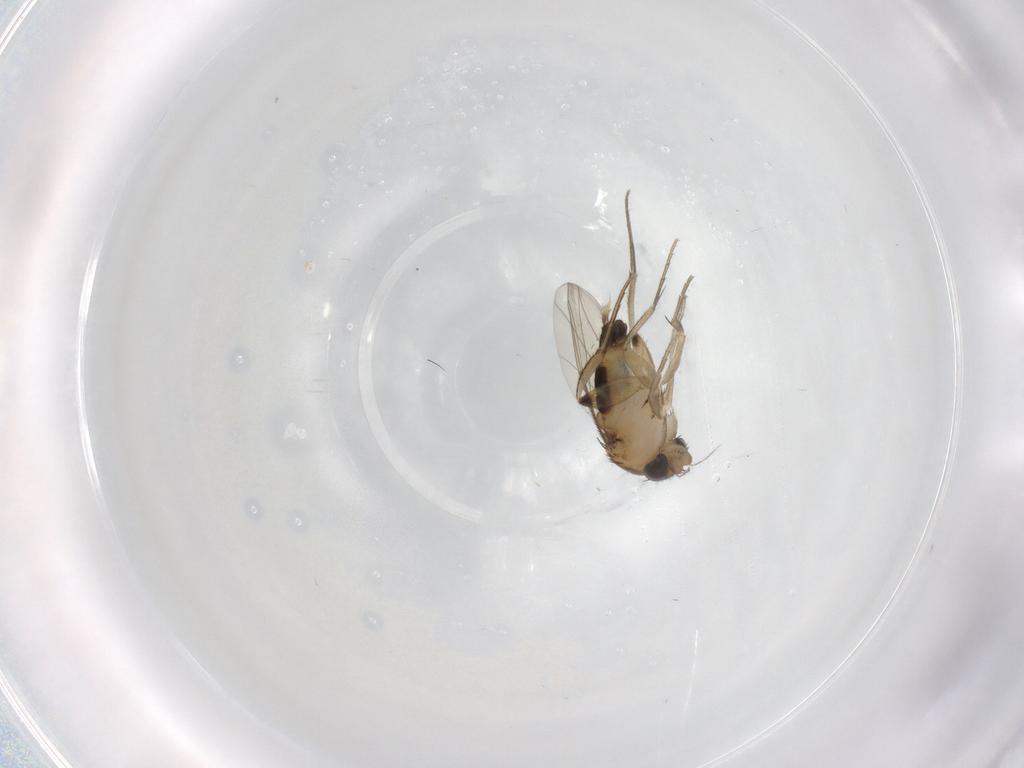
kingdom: Animalia
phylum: Arthropoda
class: Insecta
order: Diptera
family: Phoridae
